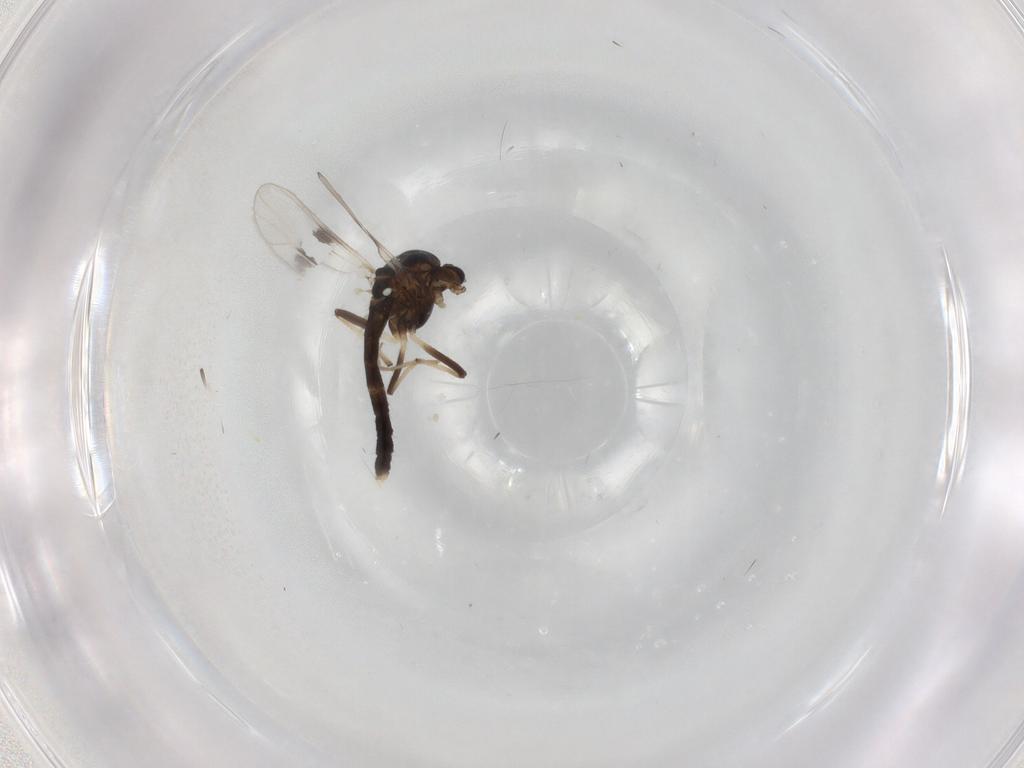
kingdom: Animalia
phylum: Arthropoda
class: Insecta
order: Diptera
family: Chironomidae
